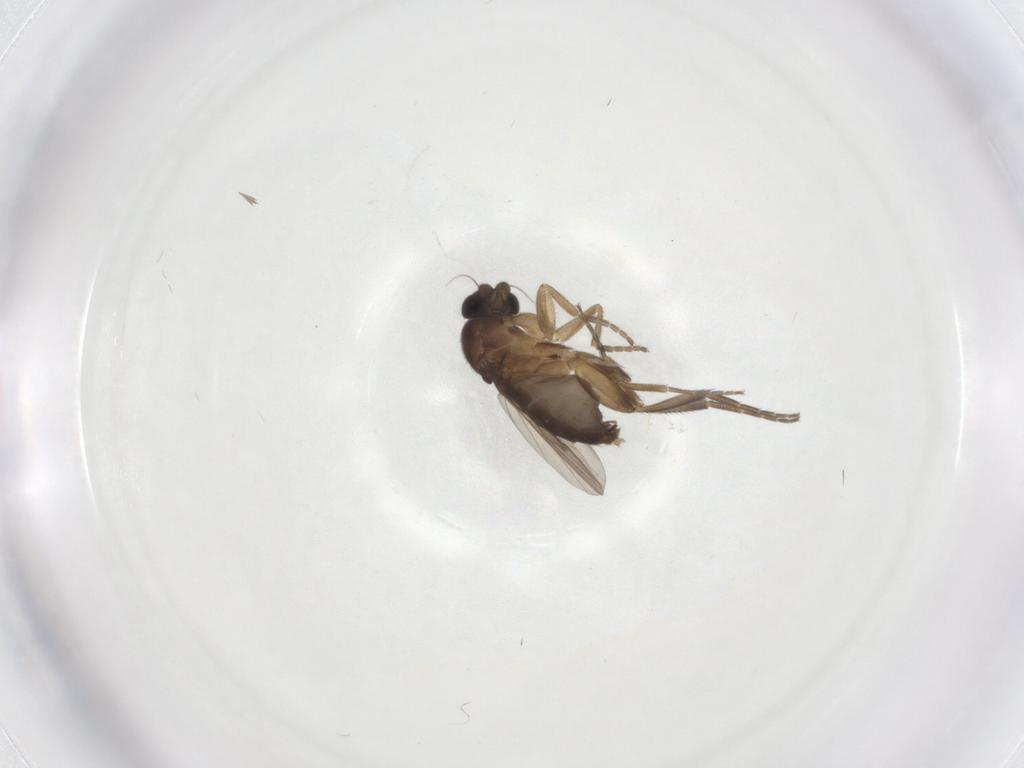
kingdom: Animalia
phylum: Arthropoda
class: Insecta
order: Diptera
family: Phoridae
